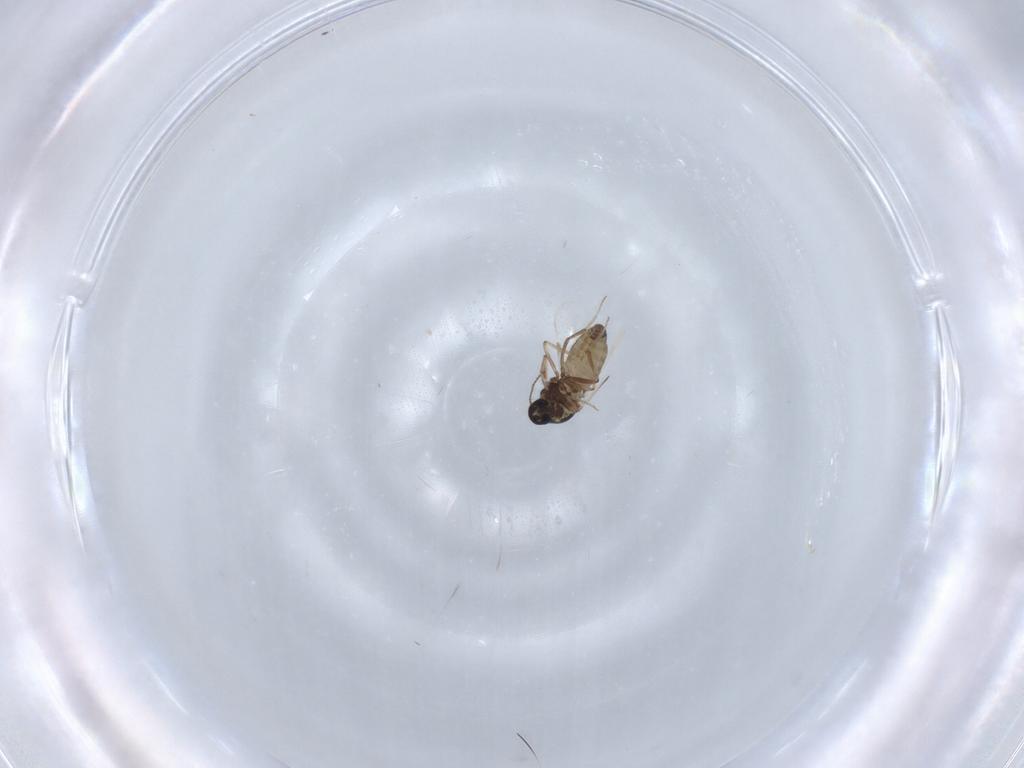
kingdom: Animalia
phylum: Arthropoda
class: Insecta
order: Diptera
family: Ceratopogonidae
